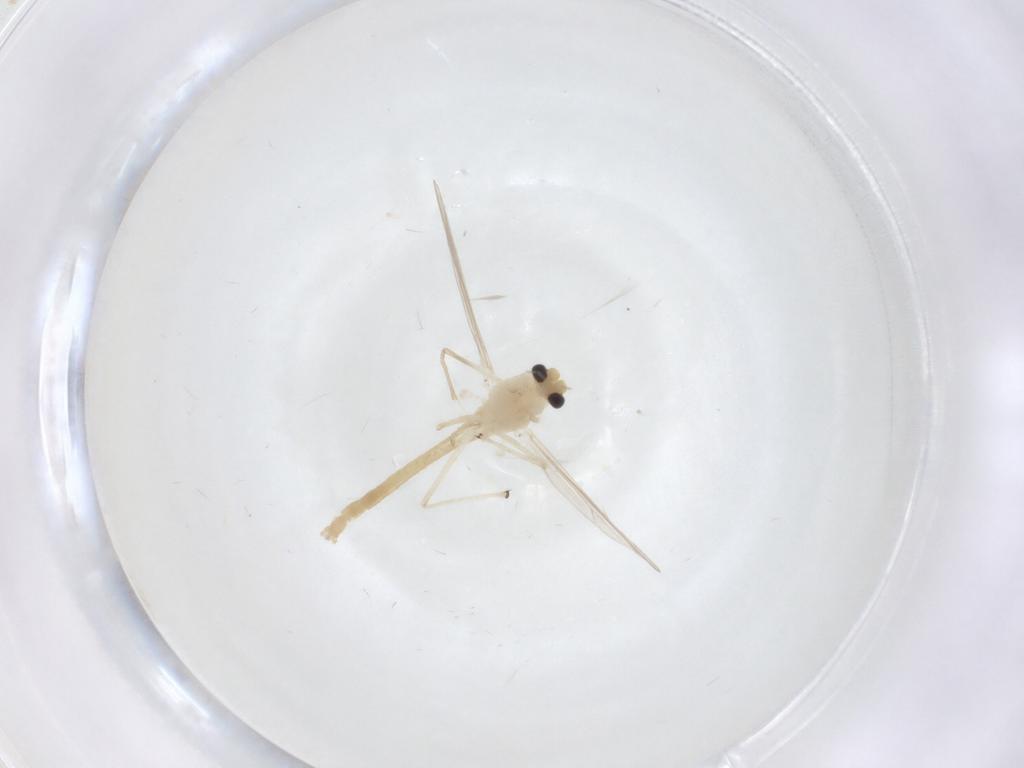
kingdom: Animalia
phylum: Arthropoda
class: Insecta
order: Diptera
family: Chironomidae
